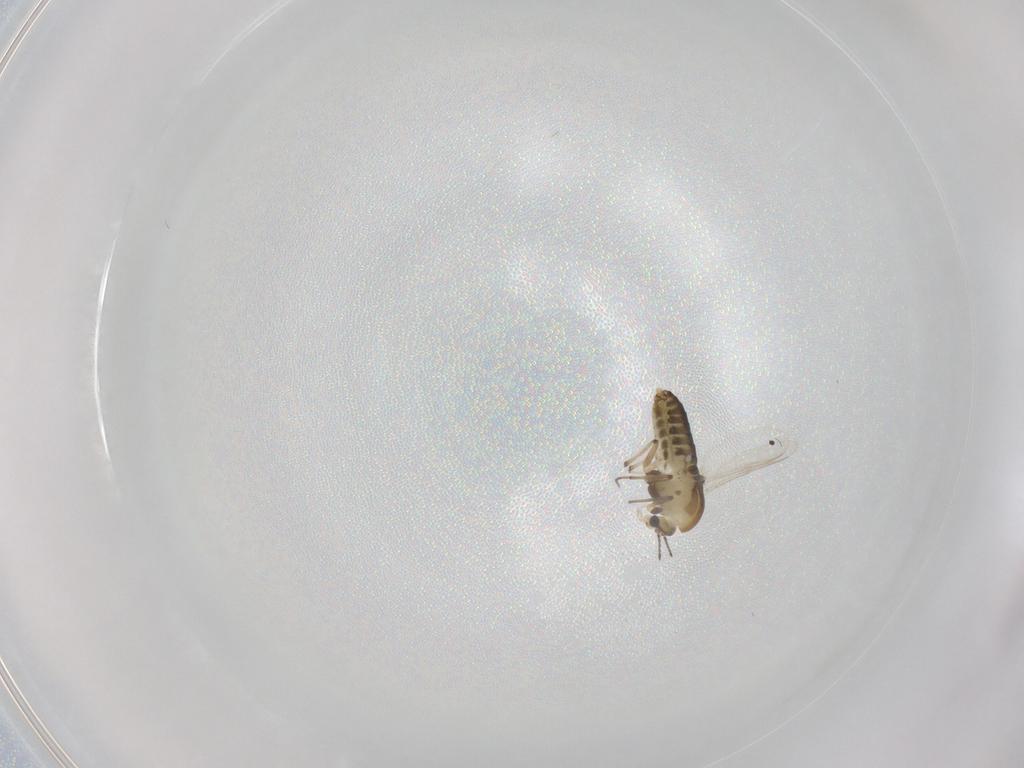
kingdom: Animalia
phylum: Arthropoda
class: Insecta
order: Diptera
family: Chironomidae
